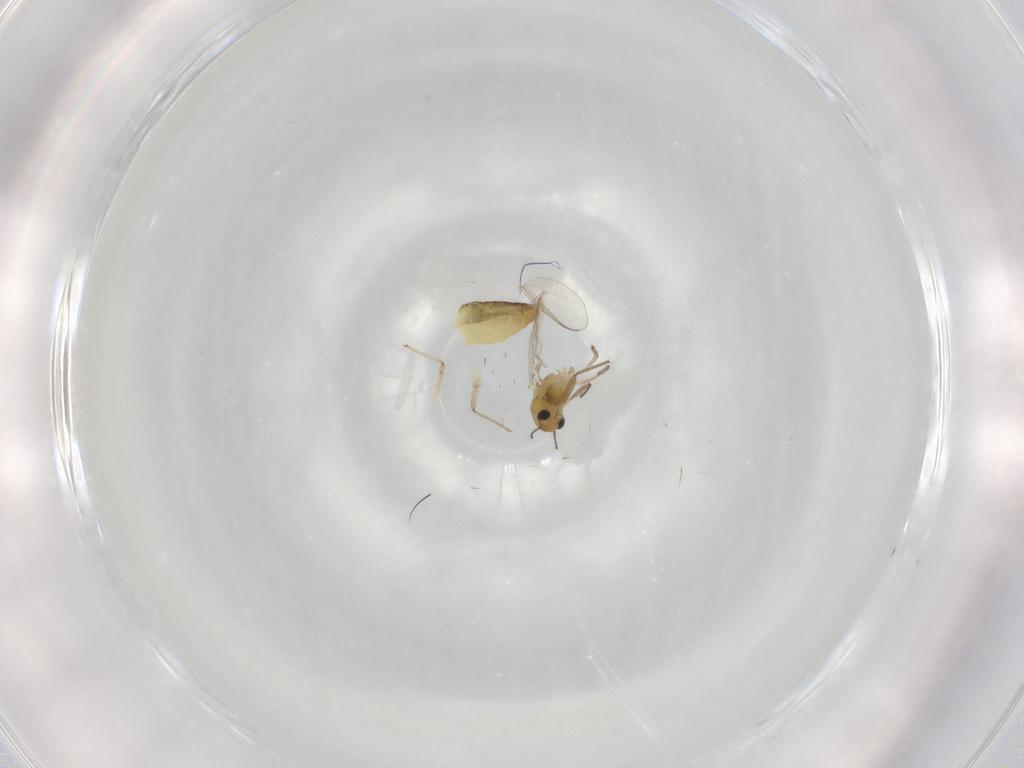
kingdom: Animalia
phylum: Arthropoda
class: Insecta
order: Diptera
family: Chironomidae
